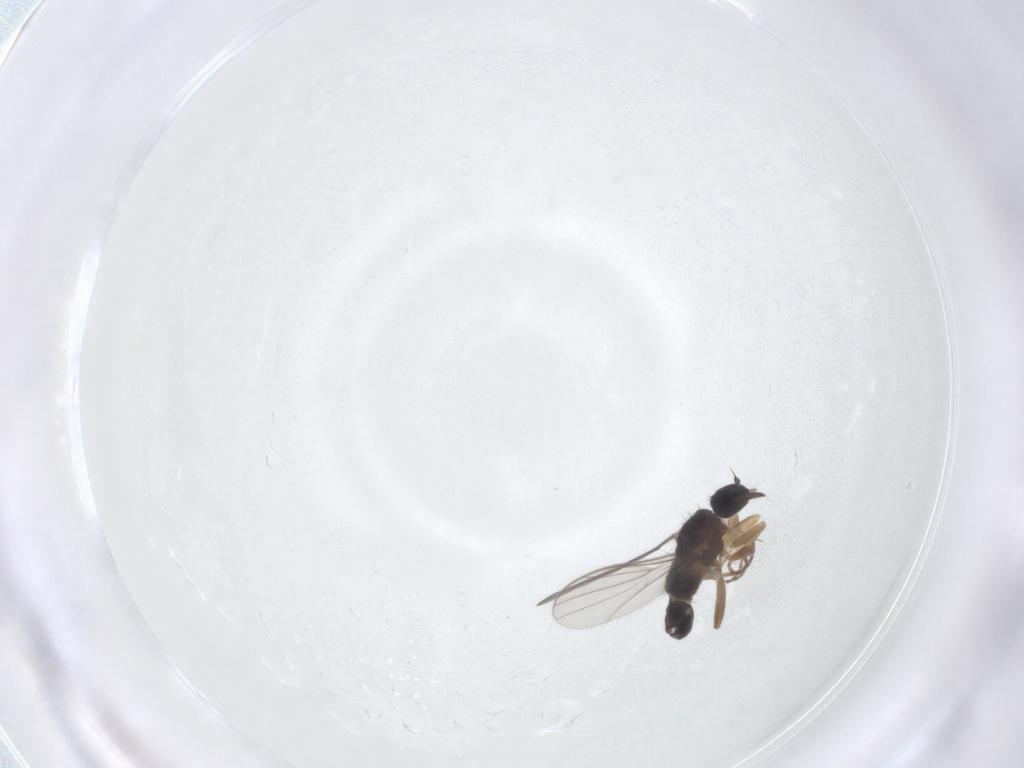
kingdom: Animalia
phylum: Arthropoda
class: Insecta
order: Diptera
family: Hybotidae
